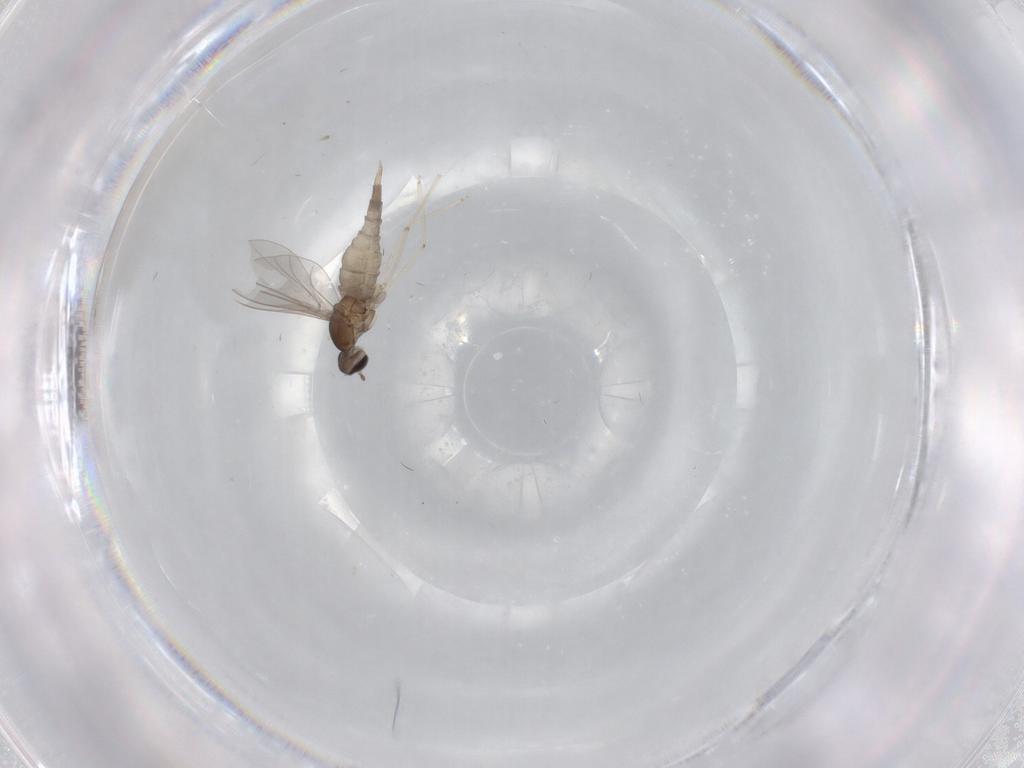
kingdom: Animalia
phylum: Arthropoda
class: Insecta
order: Diptera
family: Cecidomyiidae
